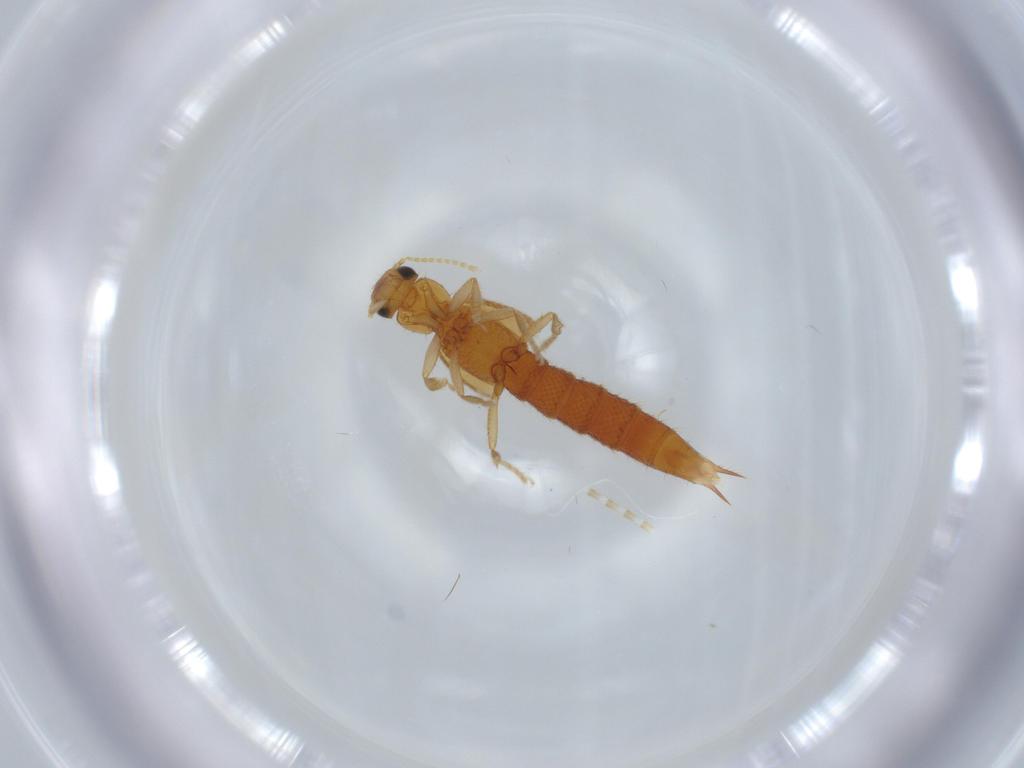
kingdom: Animalia
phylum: Arthropoda
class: Insecta
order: Coleoptera
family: Staphylinidae
